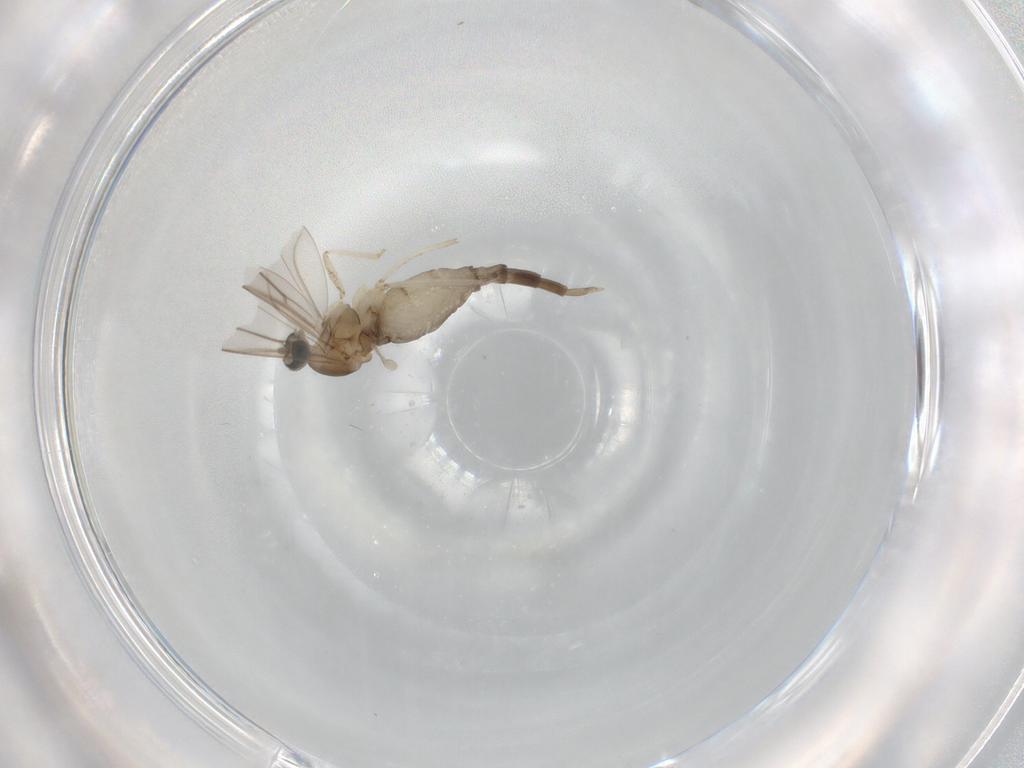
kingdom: Animalia
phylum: Arthropoda
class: Insecta
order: Diptera
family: Cecidomyiidae
